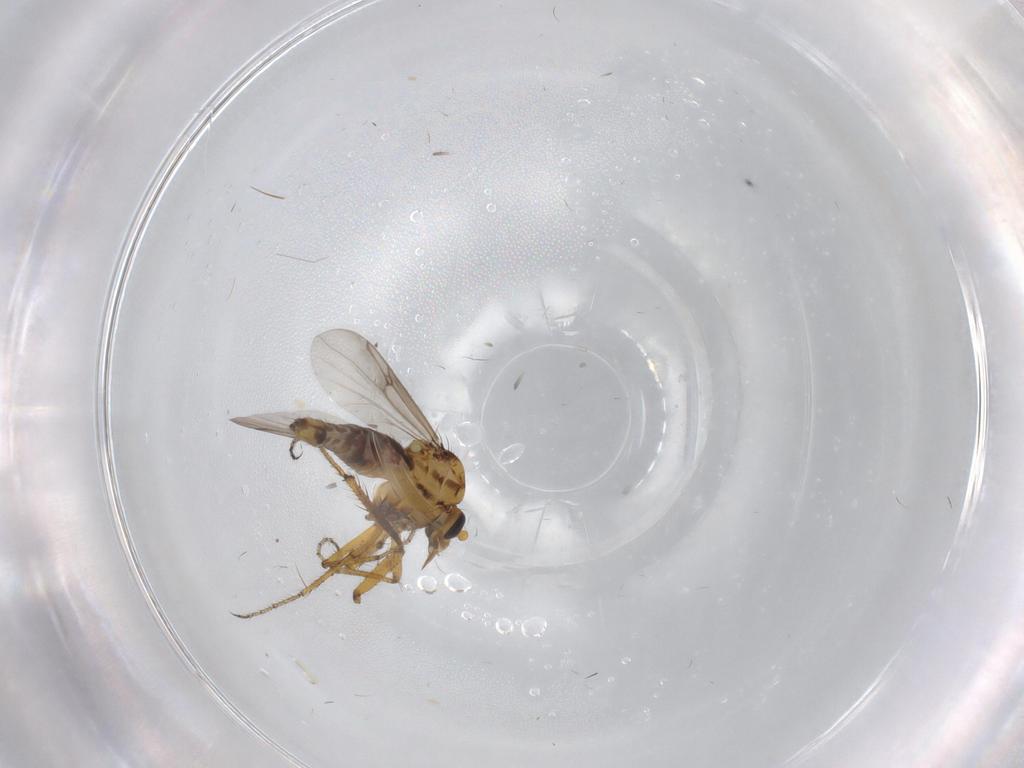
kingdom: Animalia
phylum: Arthropoda
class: Insecta
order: Diptera
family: Ceratopogonidae
